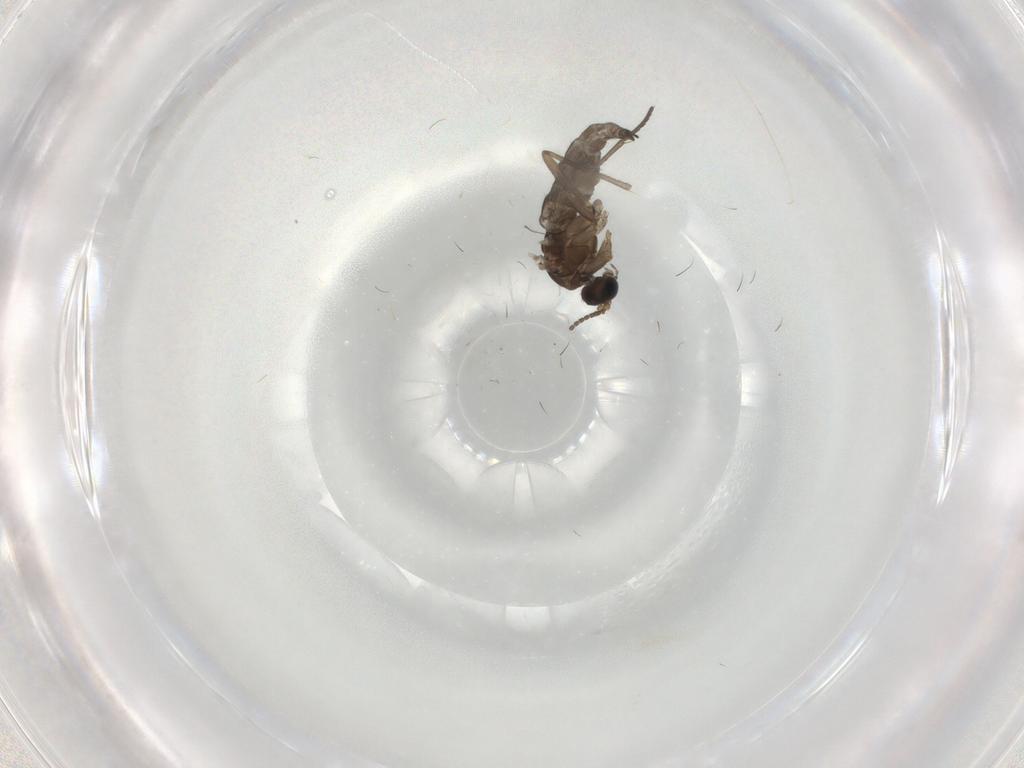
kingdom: Animalia
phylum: Arthropoda
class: Insecta
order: Diptera
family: Sciaridae
